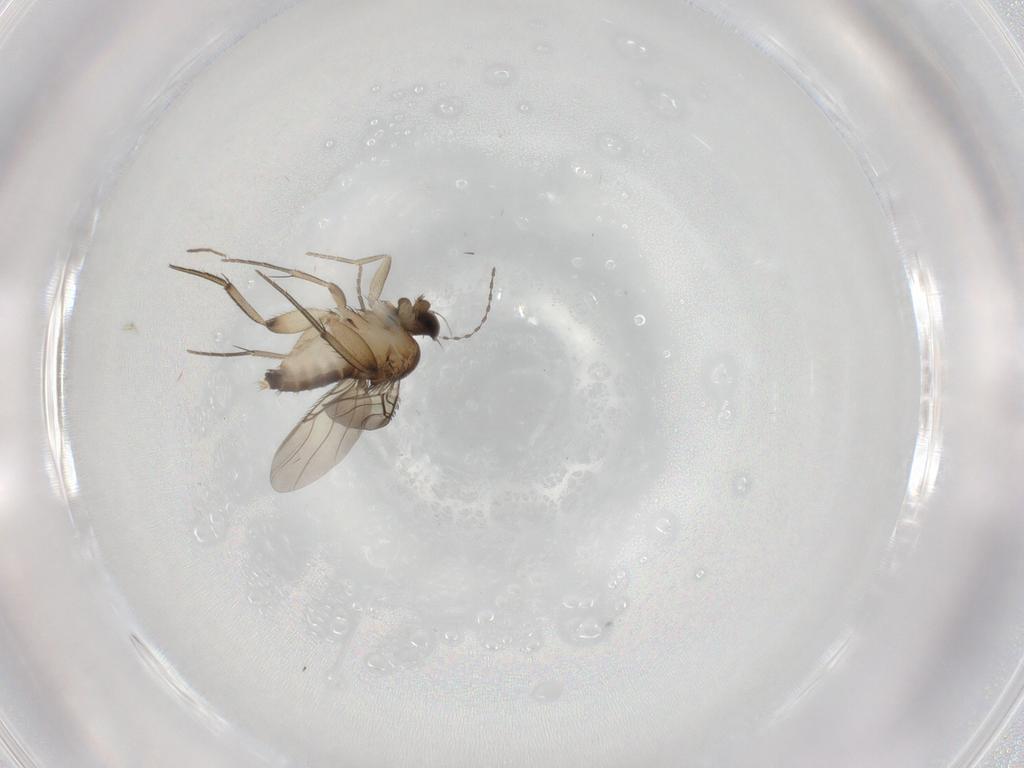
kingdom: Animalia
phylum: Arthropoda
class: Insecta
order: Diptera
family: Phoridae
